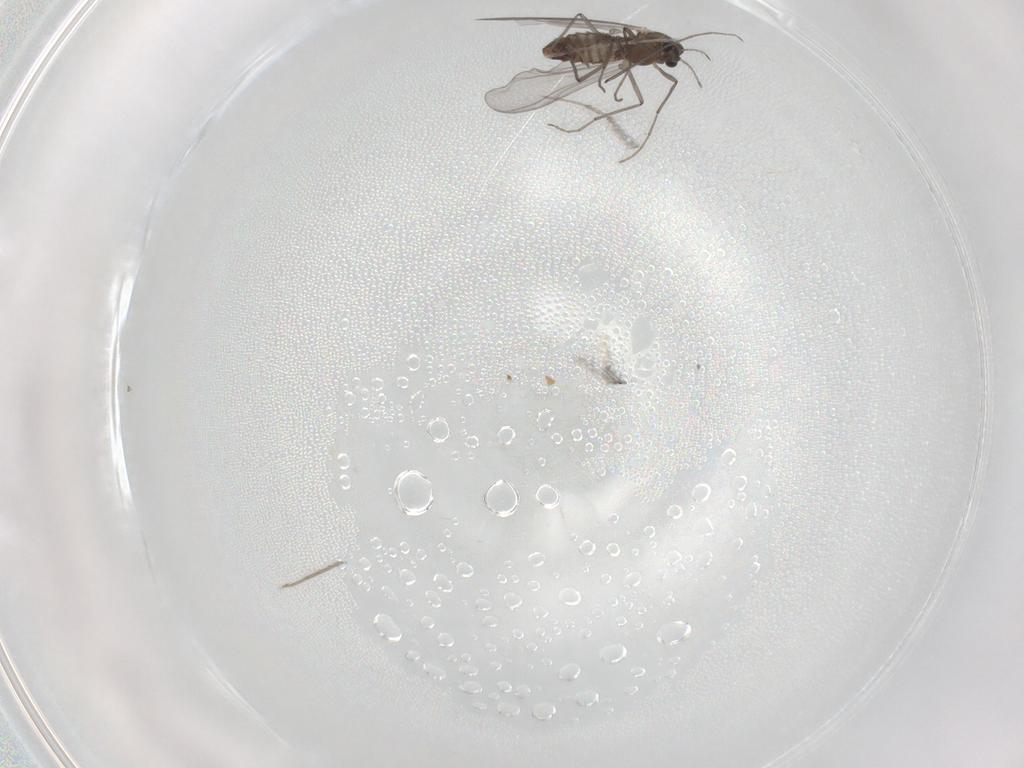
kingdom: Animalia
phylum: Arthropoda
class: Insecta
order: Diptera
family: Chironomidae
